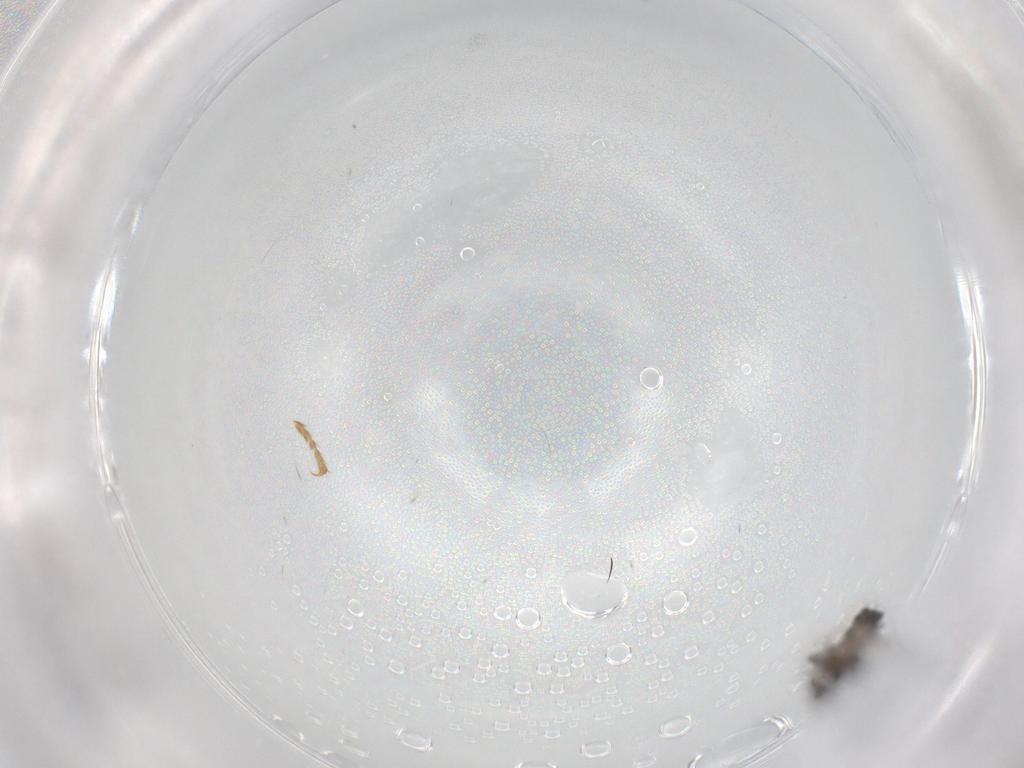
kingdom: Animalia
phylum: Arthropoda
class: Insecta
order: Diptera
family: Phoridae
